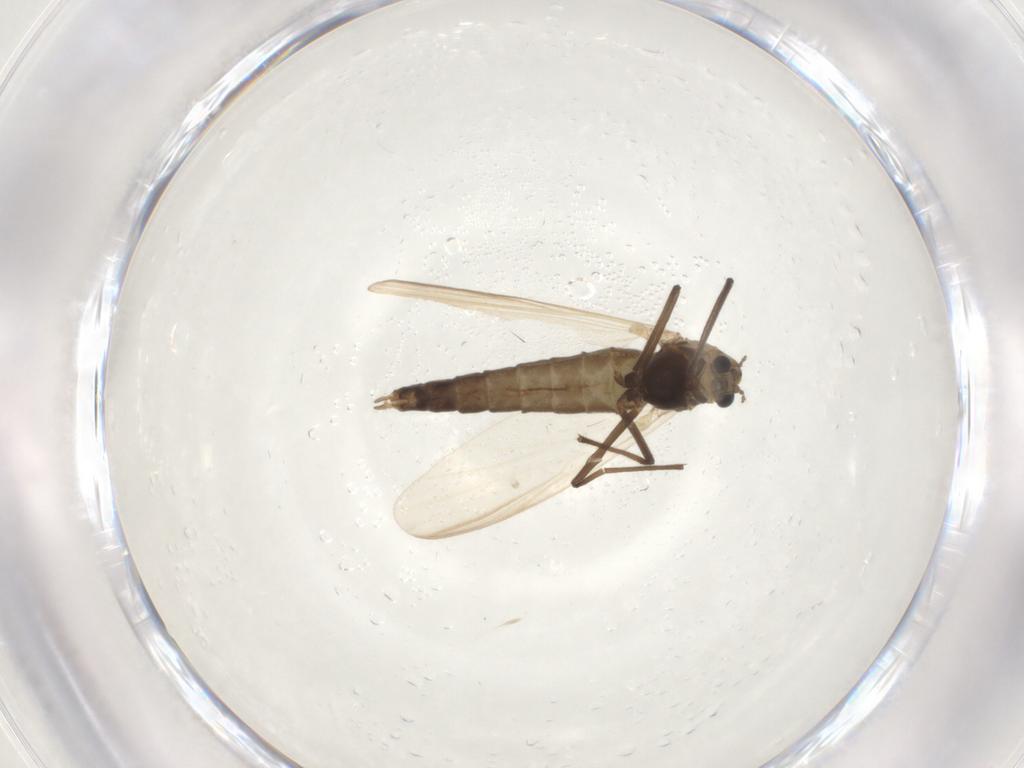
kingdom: Animalia
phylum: Arthropoda
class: Insecta
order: Diptera
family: Chironomidae
